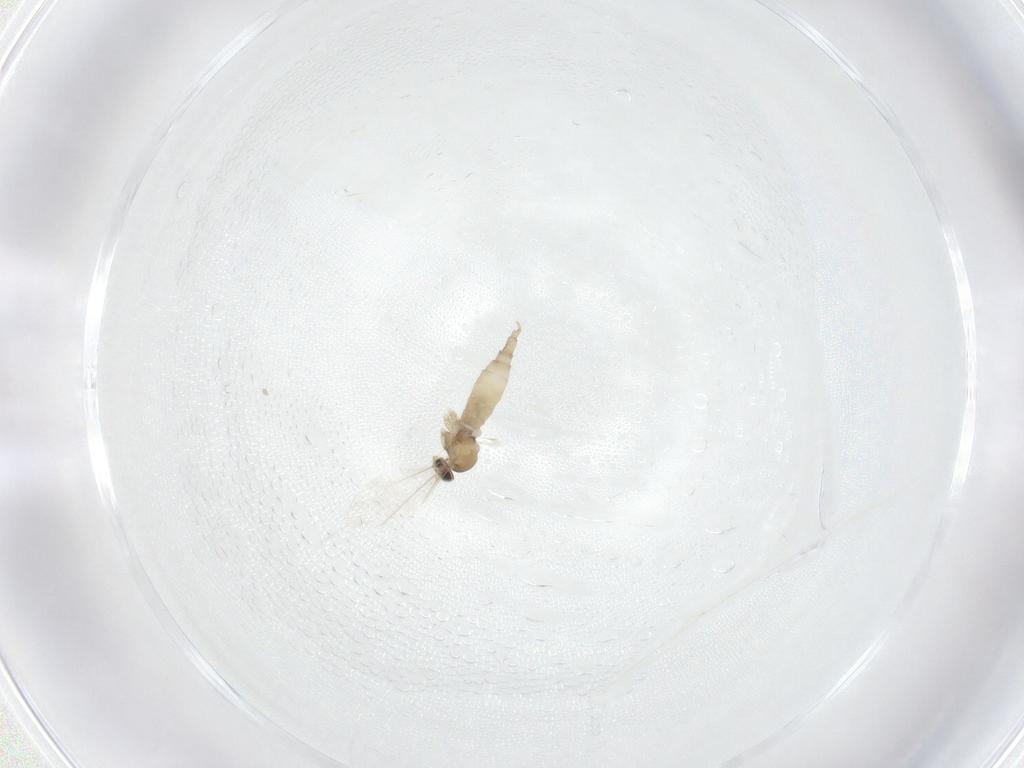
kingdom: Animalia
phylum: Arthropoda
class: Insecta
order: Diptera
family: Cecidomyiidae
